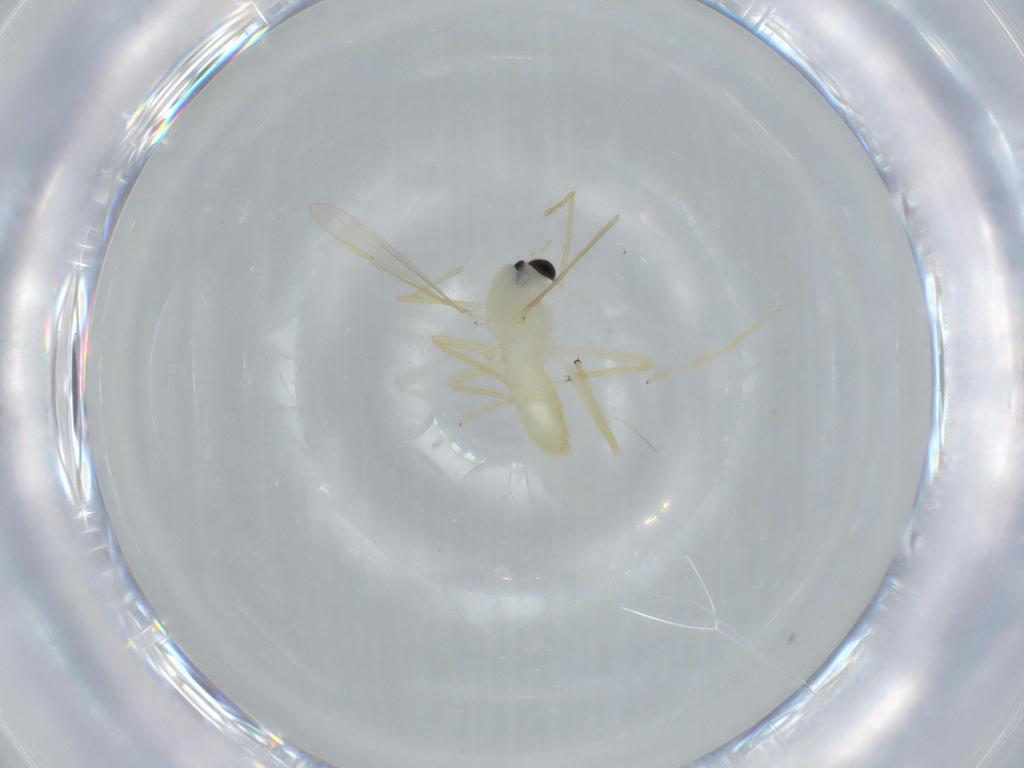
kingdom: Animalia
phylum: Arthropoda
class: Insecta
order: Diptera
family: Chironomidae
